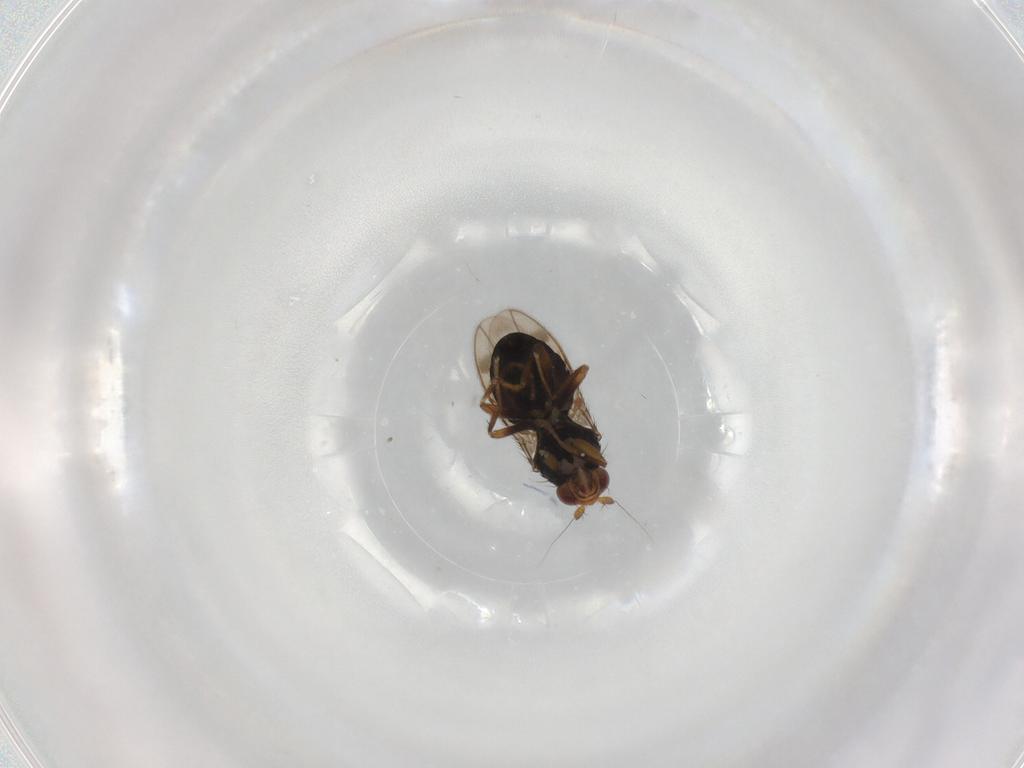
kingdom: Animalia
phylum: Arthropoda
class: Insecta
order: Diptera
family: Sphaeroceridae
